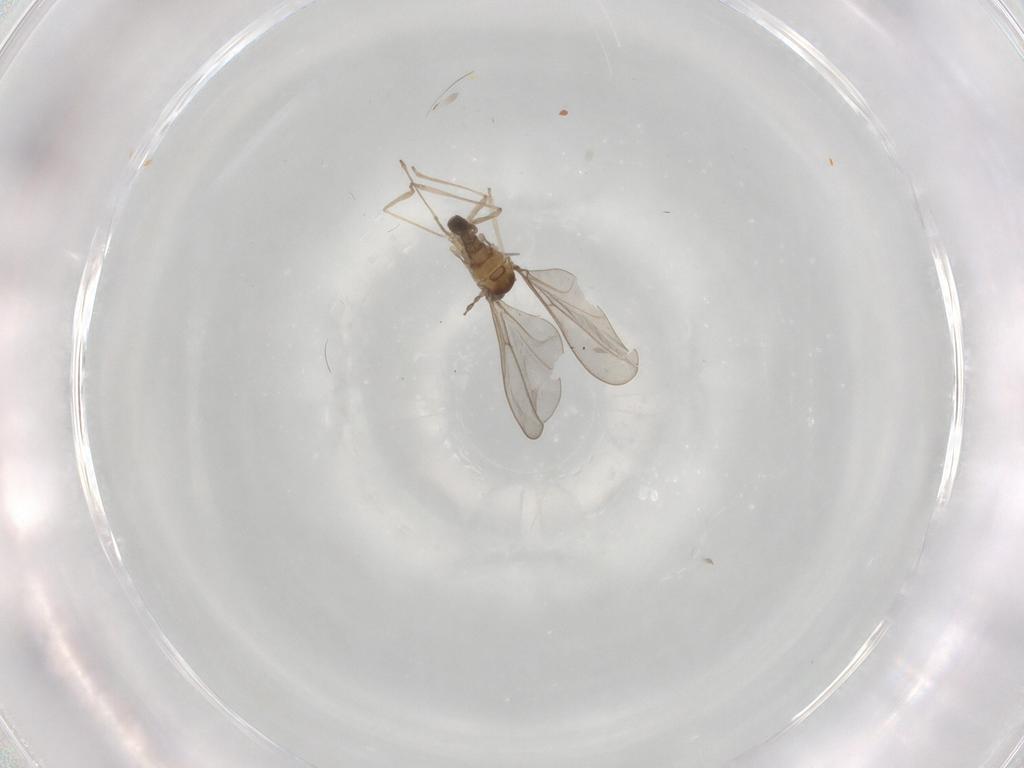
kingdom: Animalia
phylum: Arthropoda
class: Insecta
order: Diptera
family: Cecidomyiidae
